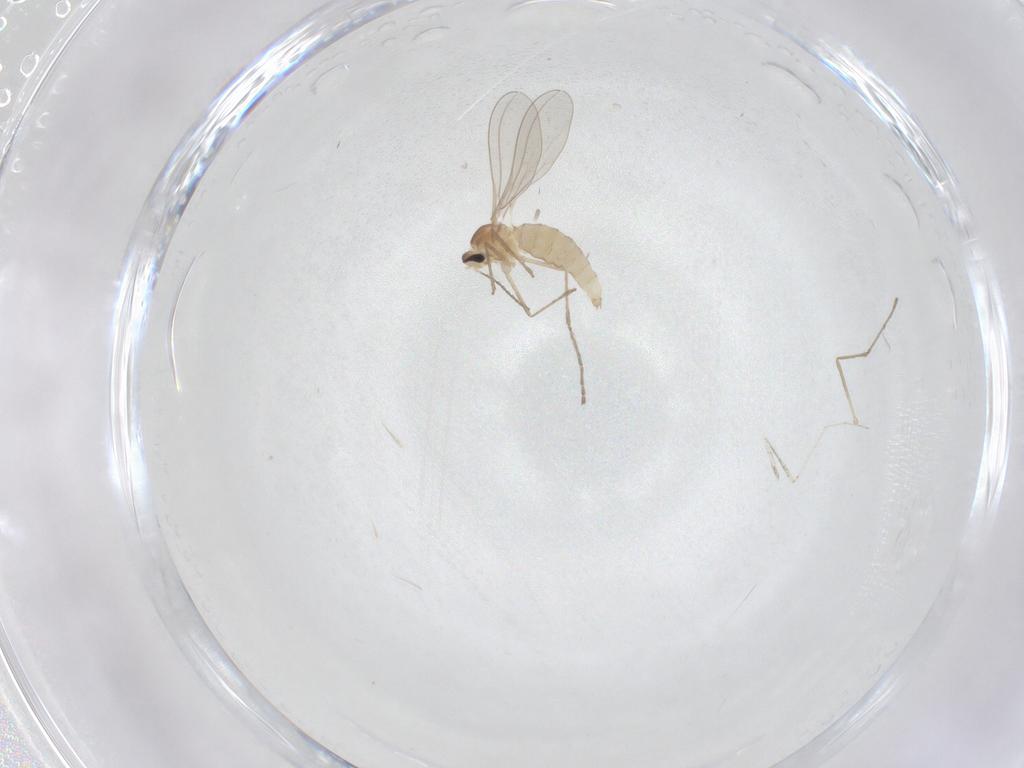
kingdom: Animalia
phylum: Arthropoda
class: Insecta
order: Diptera
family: Cecidomyiidae
